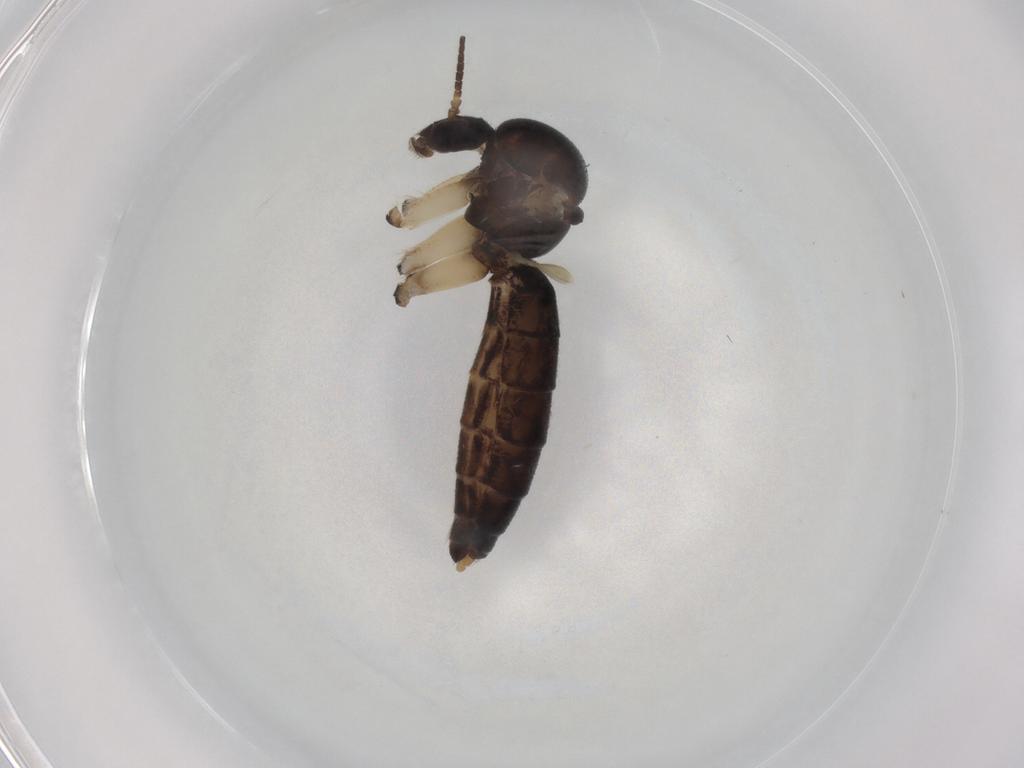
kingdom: Animalia
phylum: Arthropoda
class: Insecta
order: Diptera
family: Mycetophilidae
